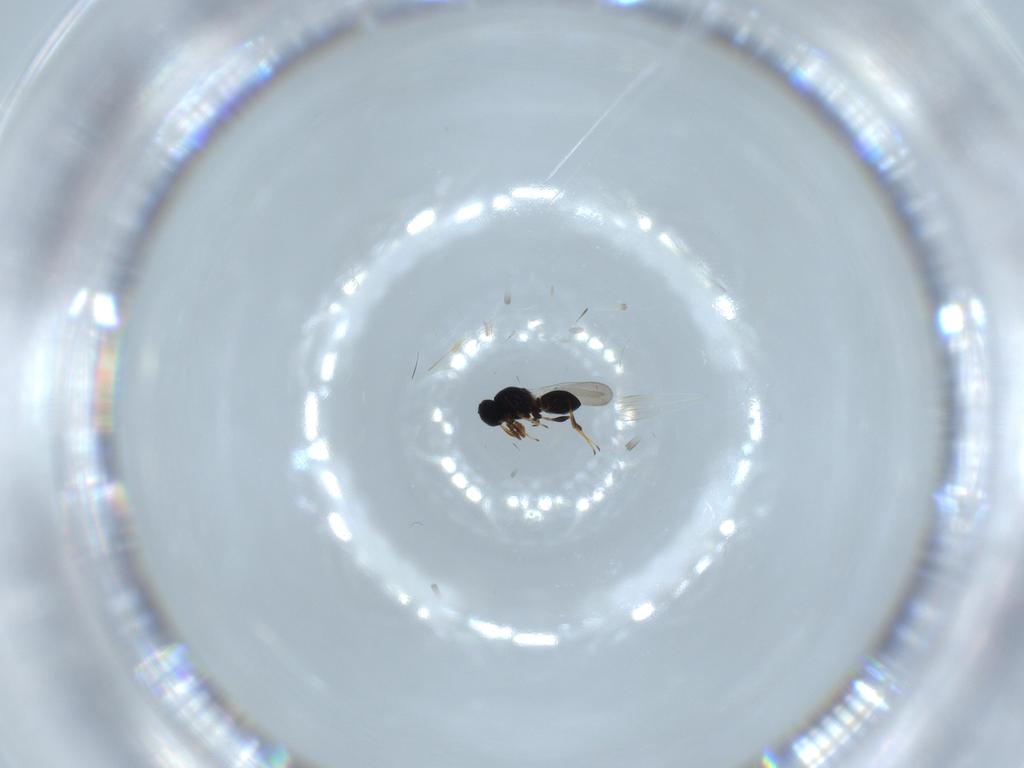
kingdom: Animalia
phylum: Arthropoda
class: Insecta
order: Hymenoptera
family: Platygastridae
